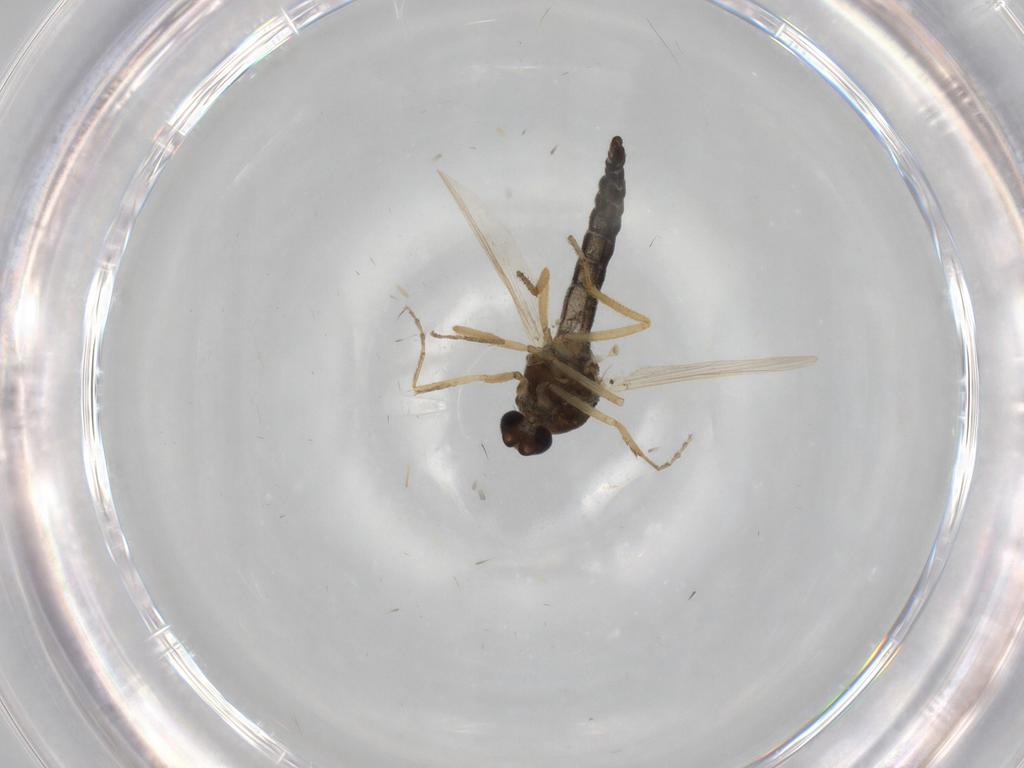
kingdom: Animalia
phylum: Arthropoda
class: Insecta
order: Diptera
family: Ceratopogonidae
